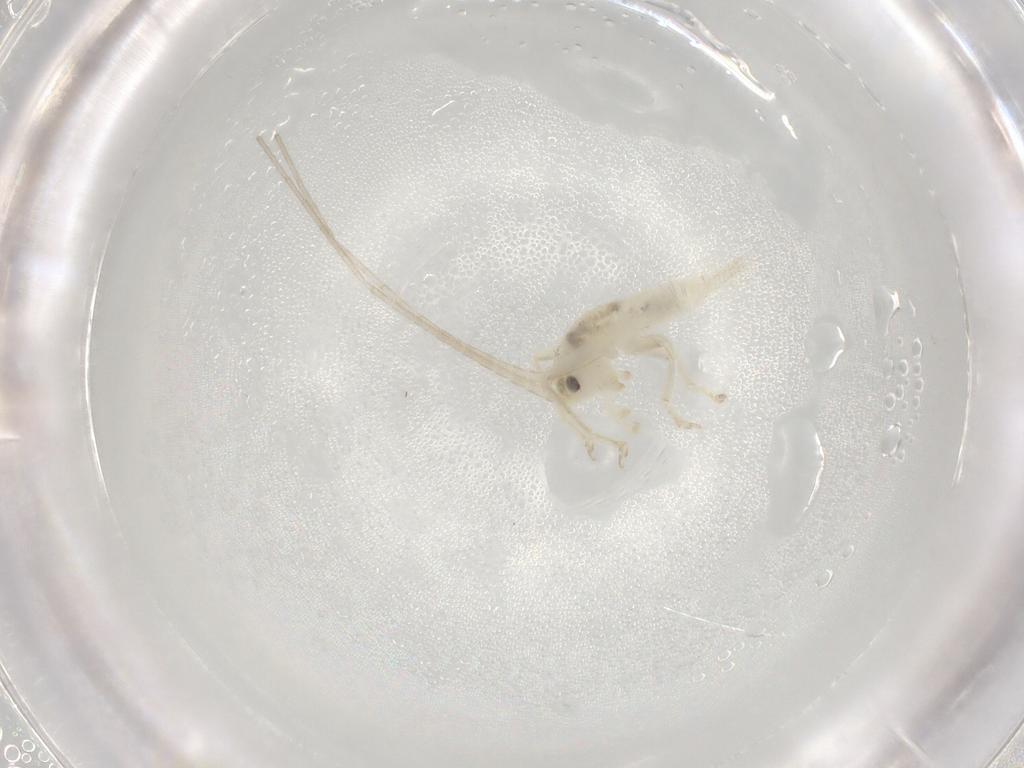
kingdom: Animalia
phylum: Arthropoda
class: Insecta
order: Orthoptera
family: Trigonidiidae
